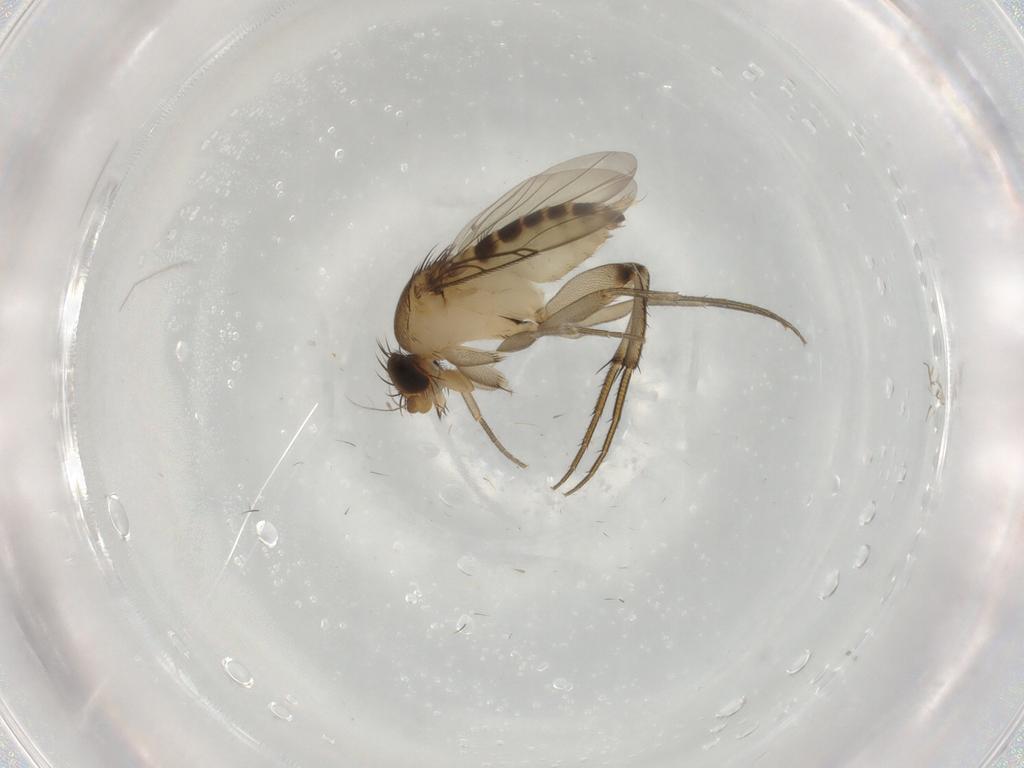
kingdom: Animalia
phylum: Arthropoda
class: Insecta
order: Diptera
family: Phoridae
